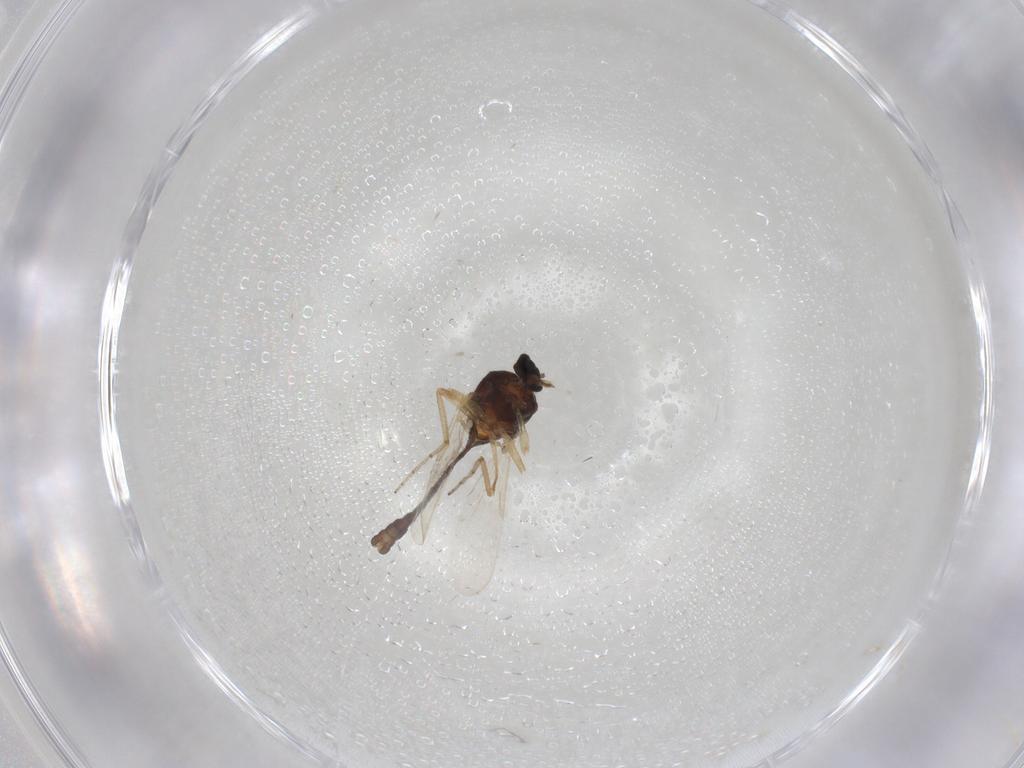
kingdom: Animalia
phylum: Arthropoda
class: Insecta
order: Diptera
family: Ceratopogonidae
